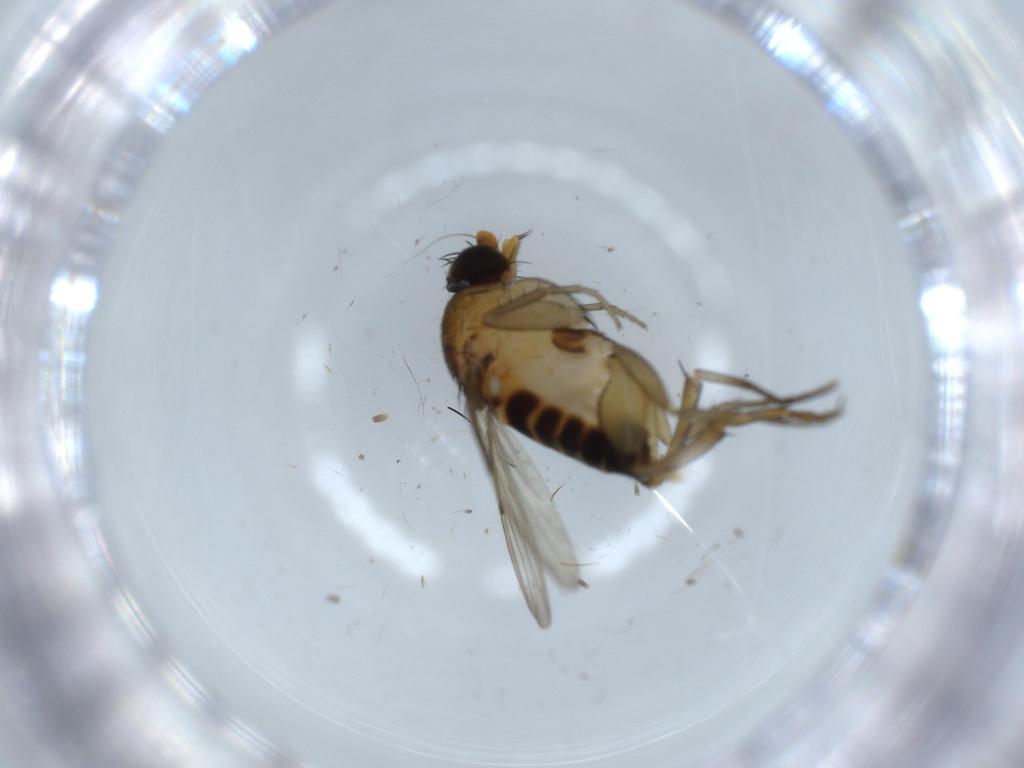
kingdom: Animalia
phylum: Arthropoda
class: Insecta
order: Diptera
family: Phoridae
